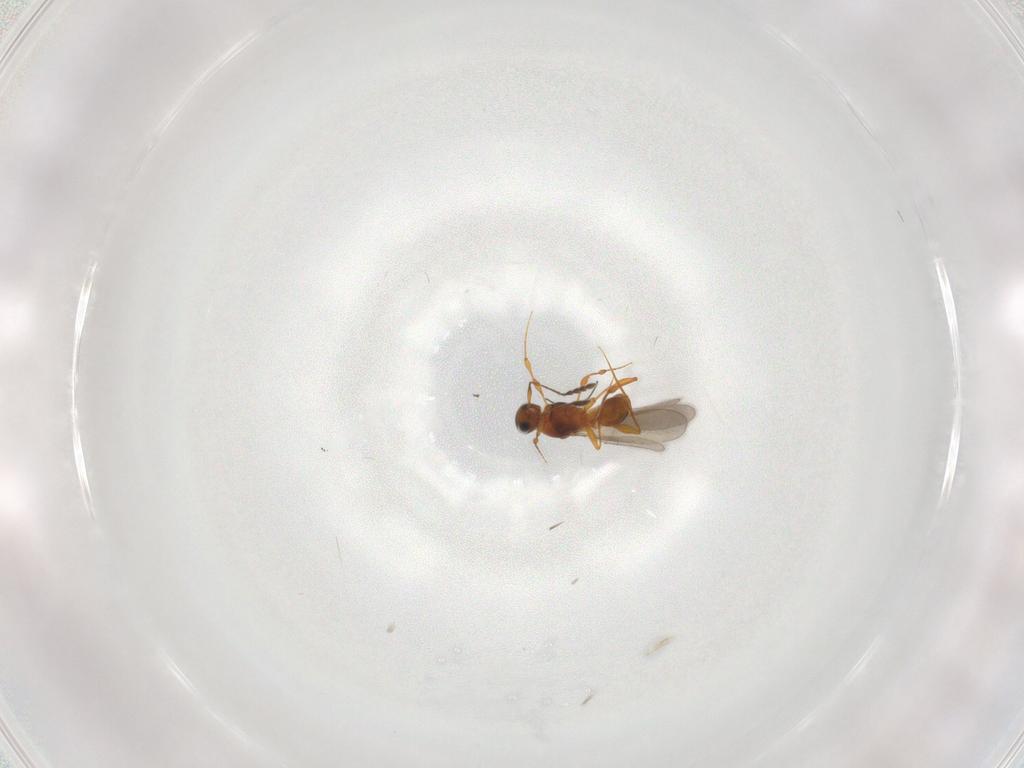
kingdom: Animalia
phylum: Arthropoda
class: Insecta
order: Hymenoptera
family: Platygastridae
